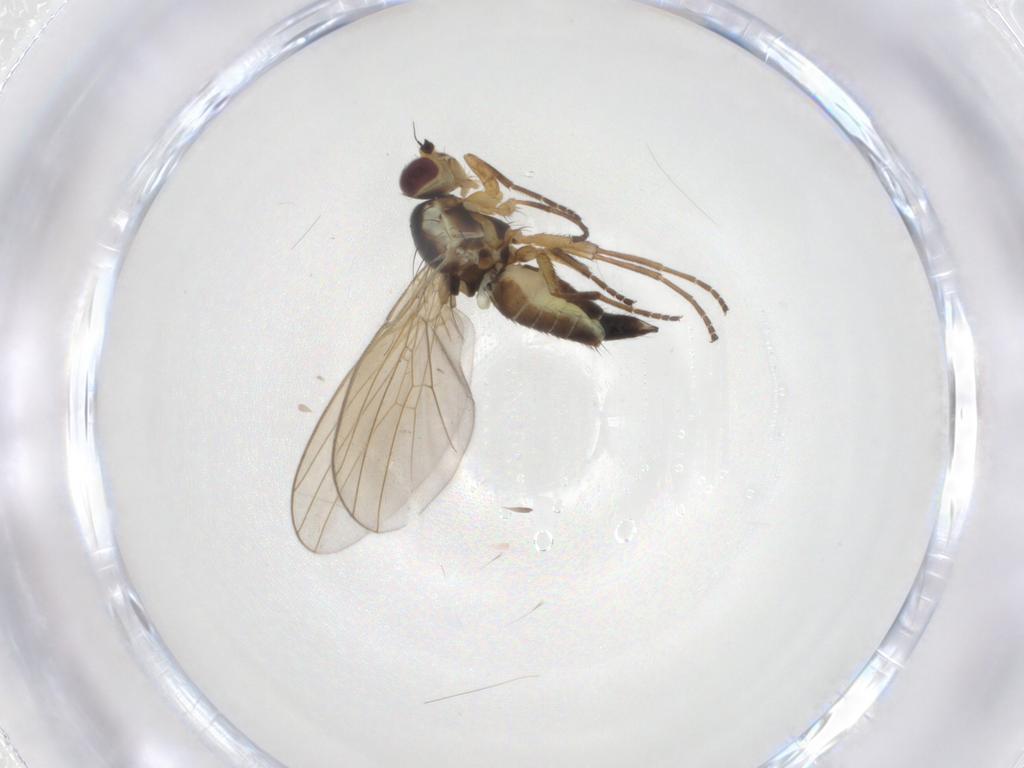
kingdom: Animalia
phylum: Arthropoda
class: Insecta
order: Diptera
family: Agromyzidae
